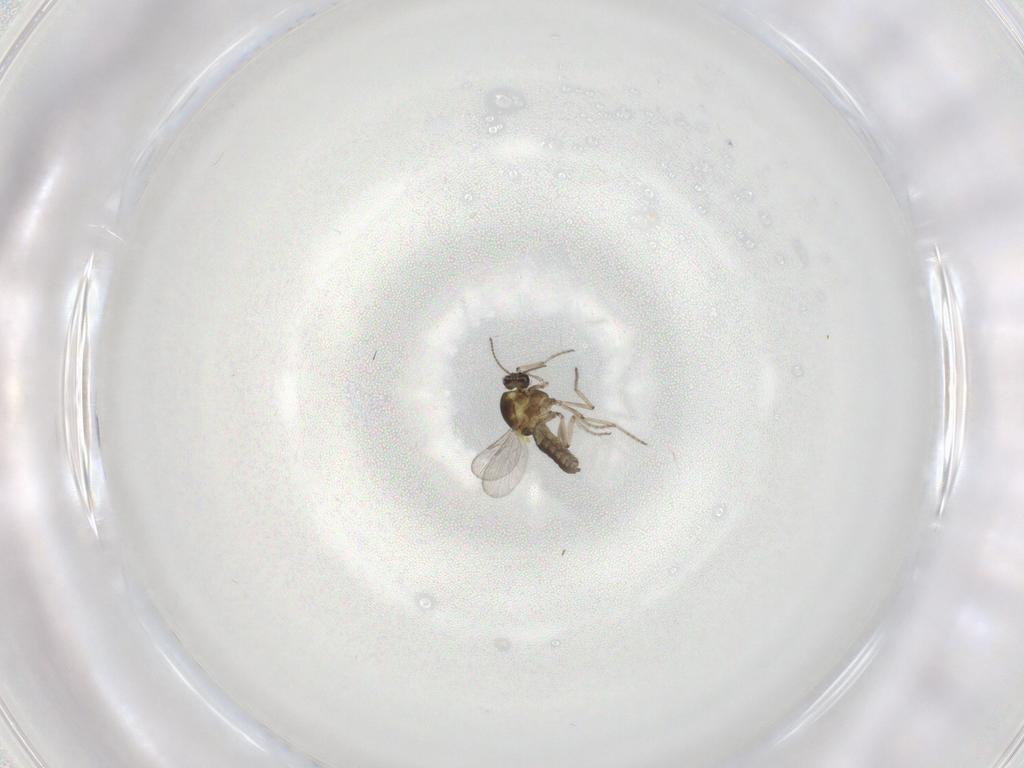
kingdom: Animalia
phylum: Arthropoda
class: Insecta
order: Diptera
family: Ceratopogonidae
